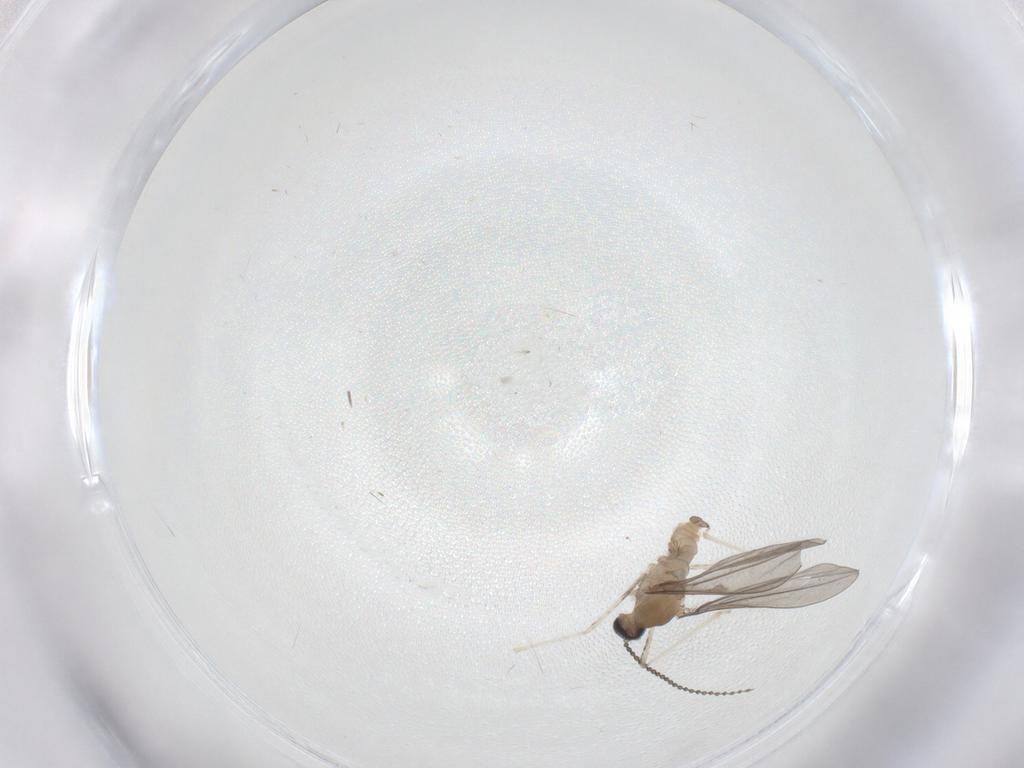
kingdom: Animalia
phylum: Arthropoda
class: Insecta
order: Diptera
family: Cecidomyiidae
